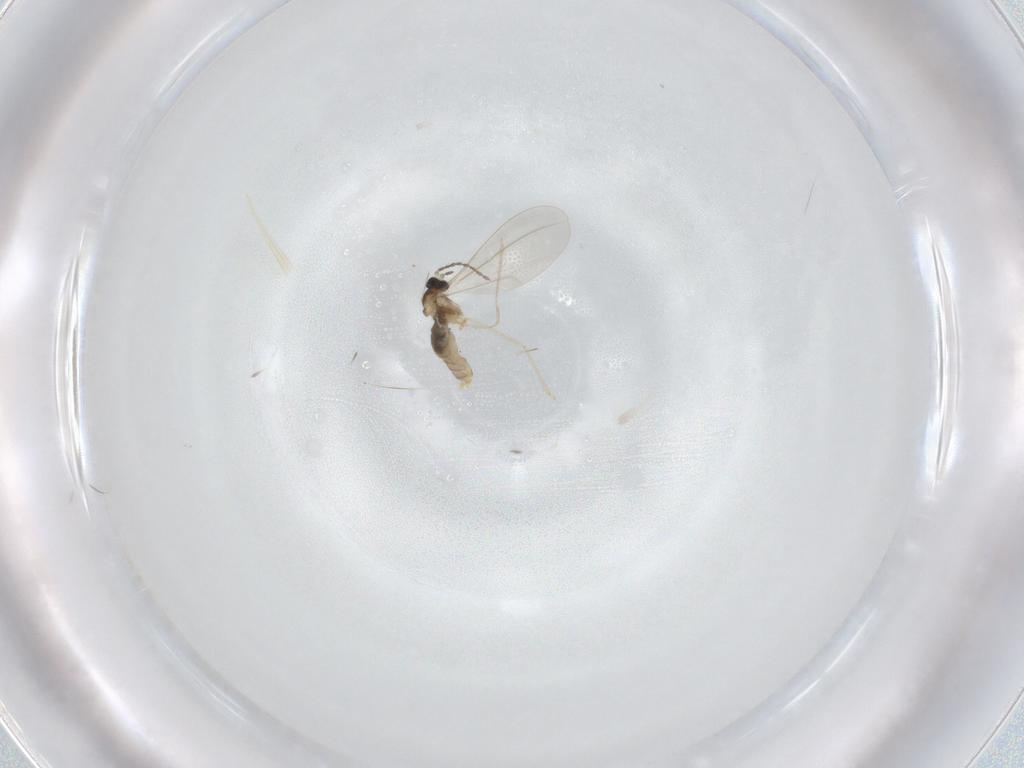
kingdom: Animalia
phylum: Arthropoda
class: Insecta
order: Diptera
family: Cecidomyiidae
